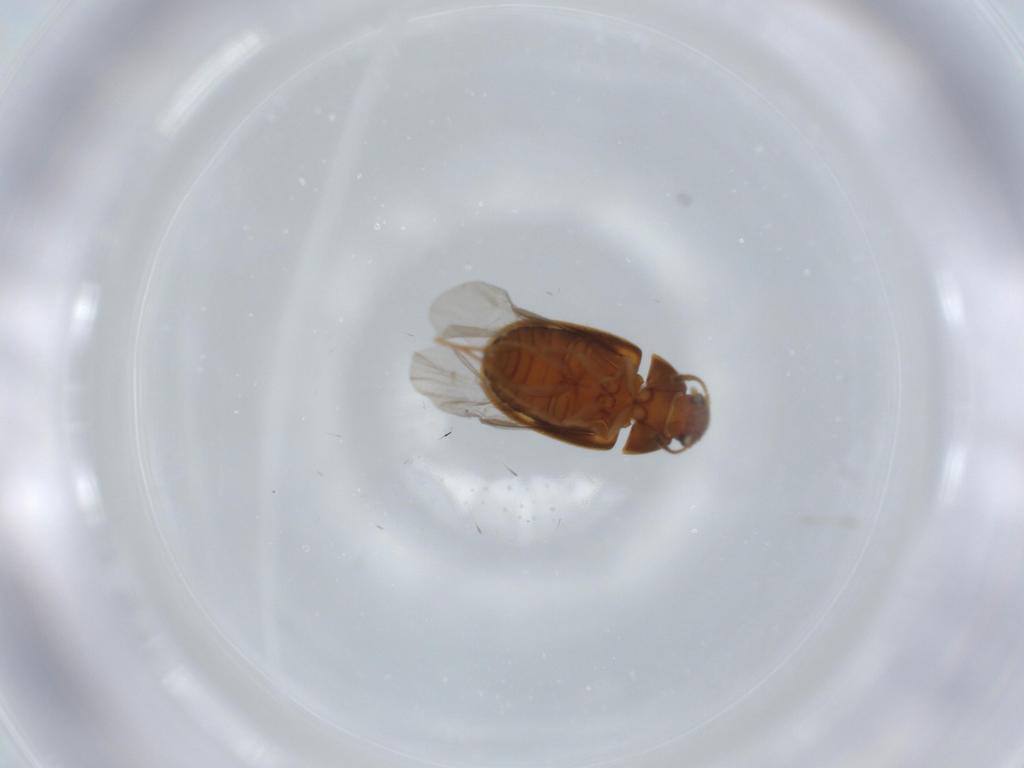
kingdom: Animalia
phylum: Arthropoda
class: Insecta
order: Coleoptera
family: Mycetophagidae
